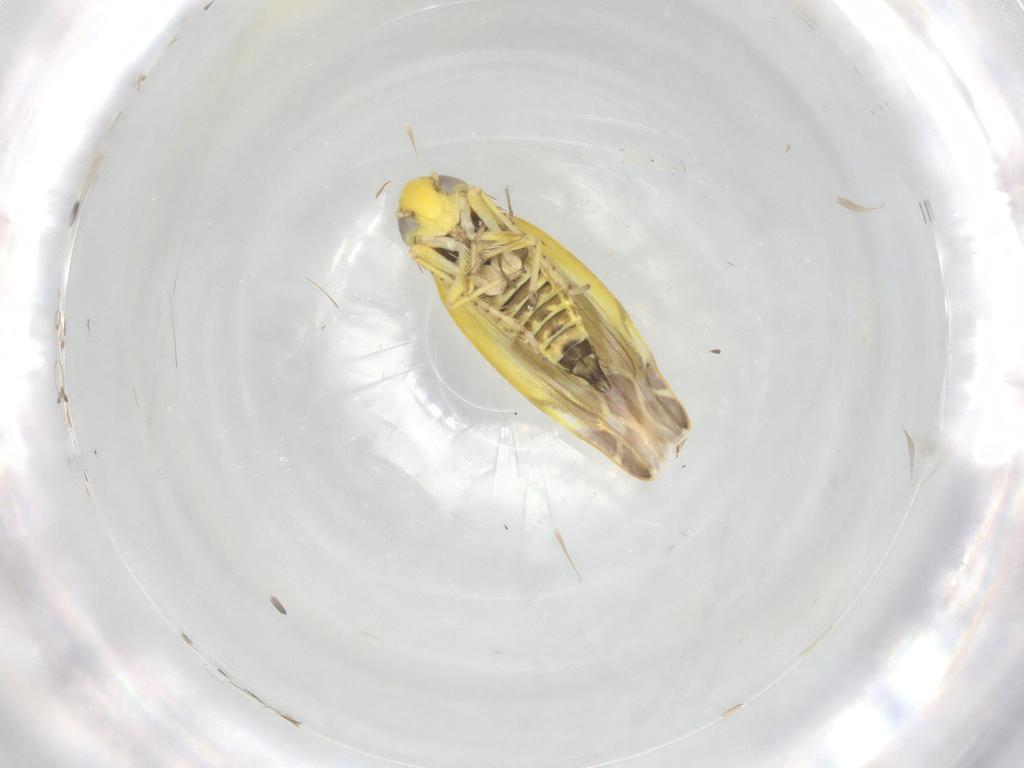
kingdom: Animalia
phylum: Arthropoda
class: Insecta
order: Hemiptera
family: Cicadellidae
